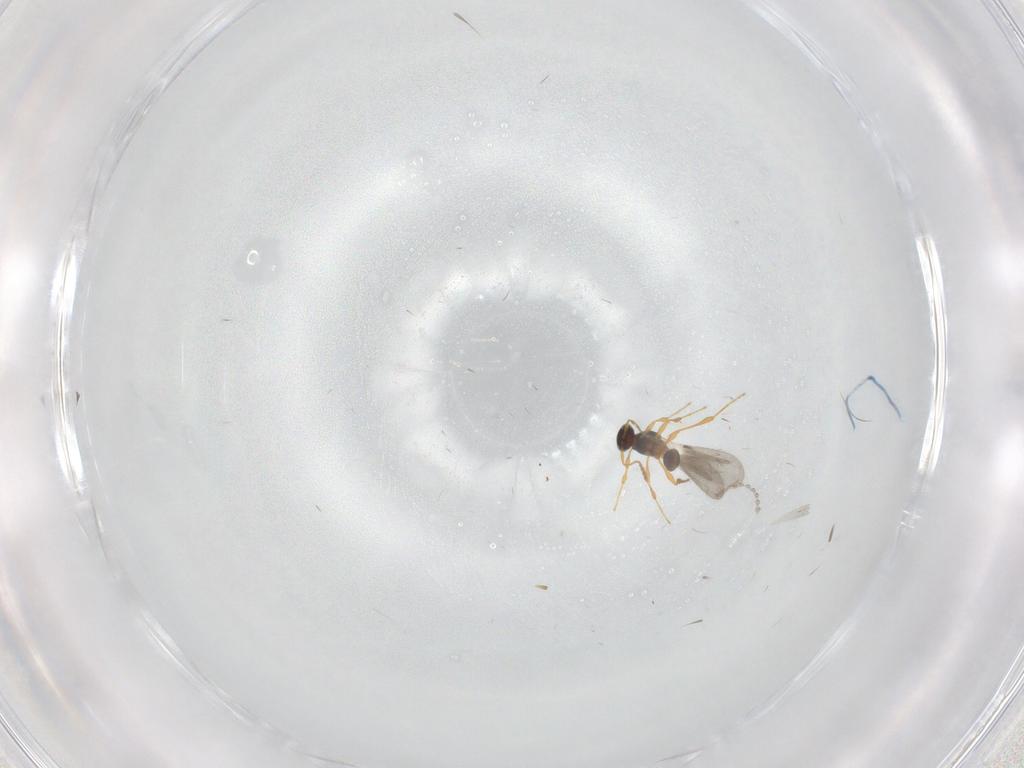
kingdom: Animalia
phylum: Arthropoda
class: Insecta
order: Hymenoptera
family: Platygastridae
